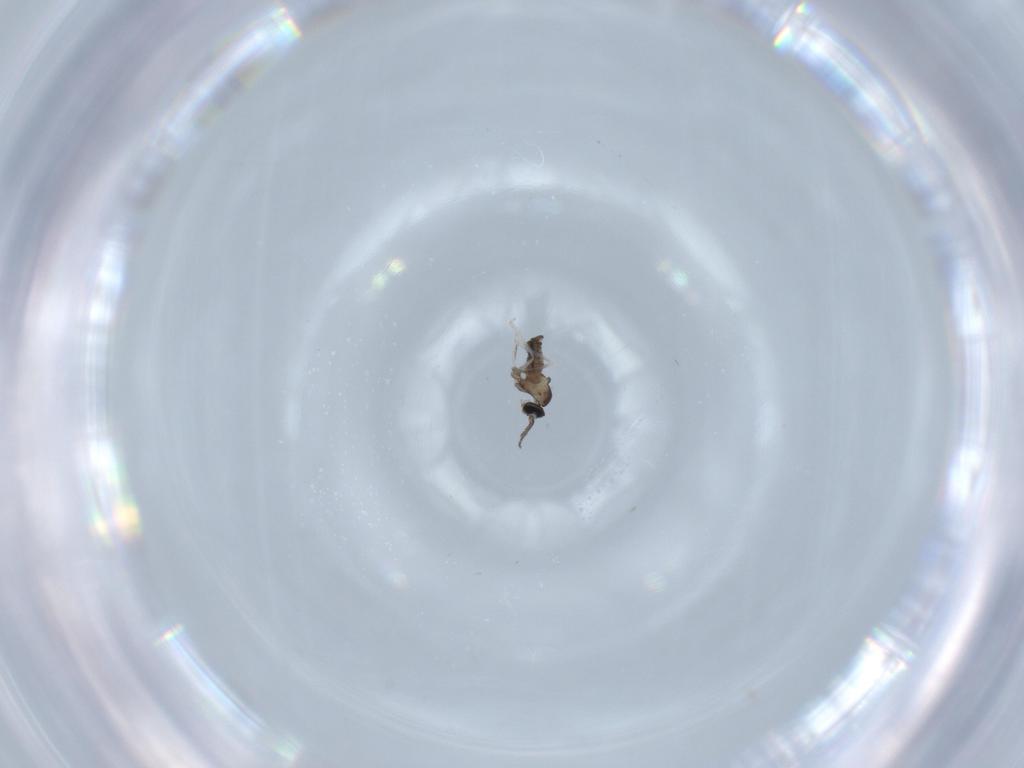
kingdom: Animalia
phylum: Arthropoda
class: Insecta
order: Diptera
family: Cecidomyiidae
